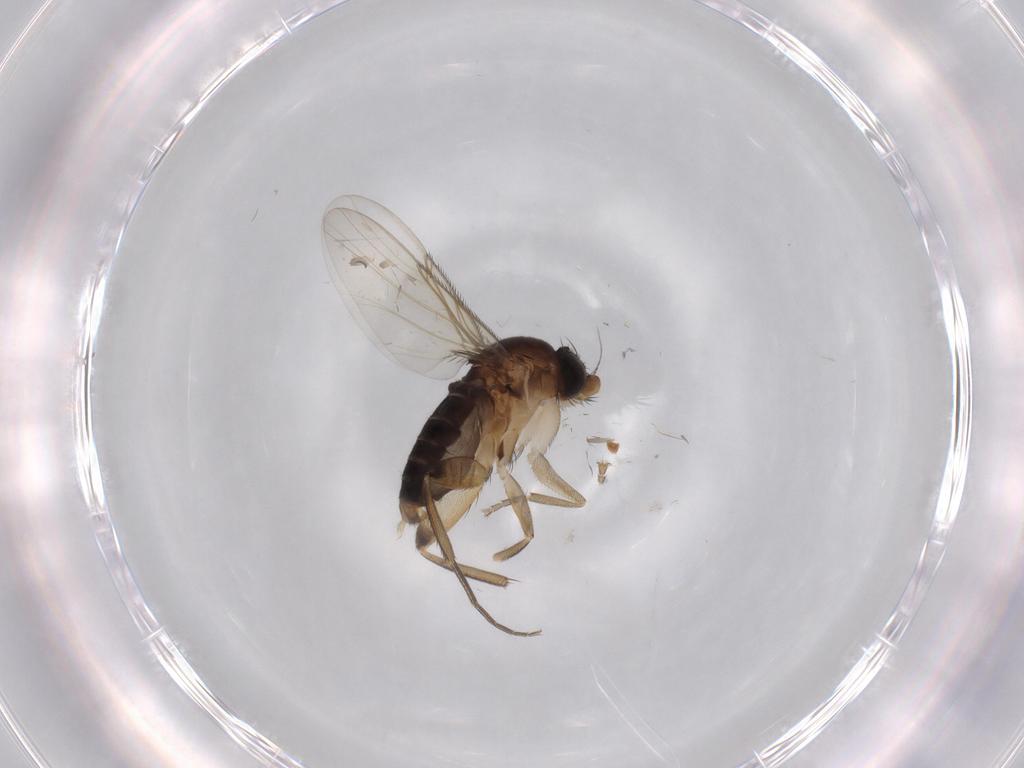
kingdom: Animalia
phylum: Arthropoda
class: Insecta
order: Diptera
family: Phoridae
